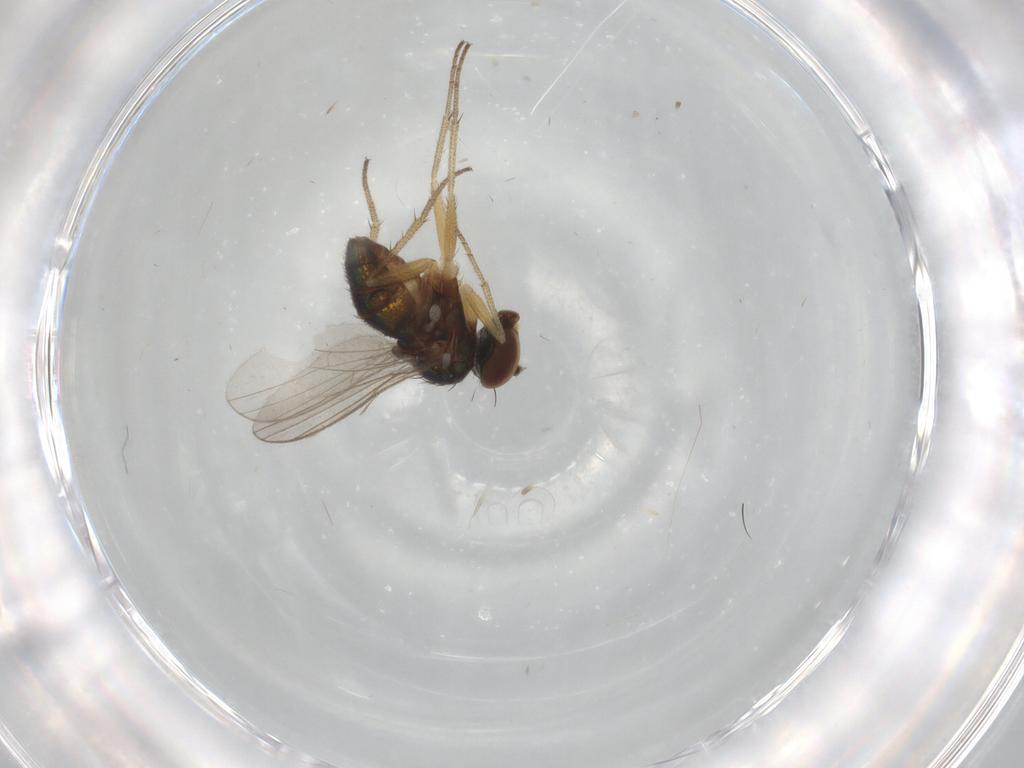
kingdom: Animalia
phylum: Arthropoda
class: Insecta
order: Diptera
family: Dolichopodidae
